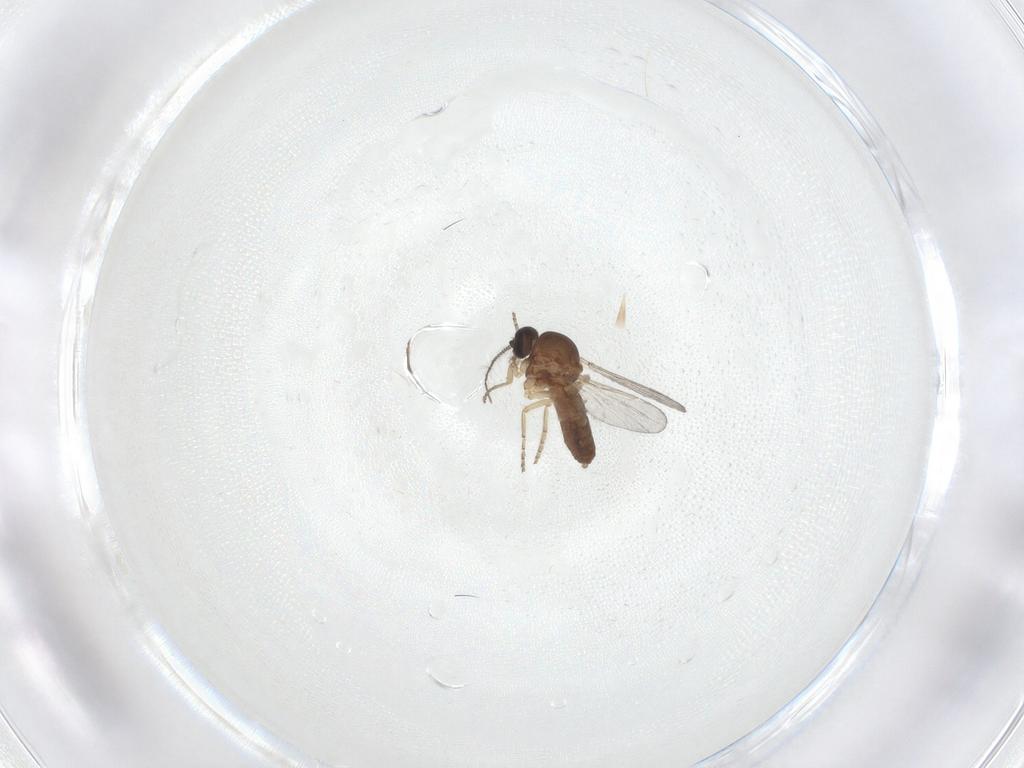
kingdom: Animalia
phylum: Arthropoda
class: Insecta
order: Diptera
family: Ceratopogonidae
